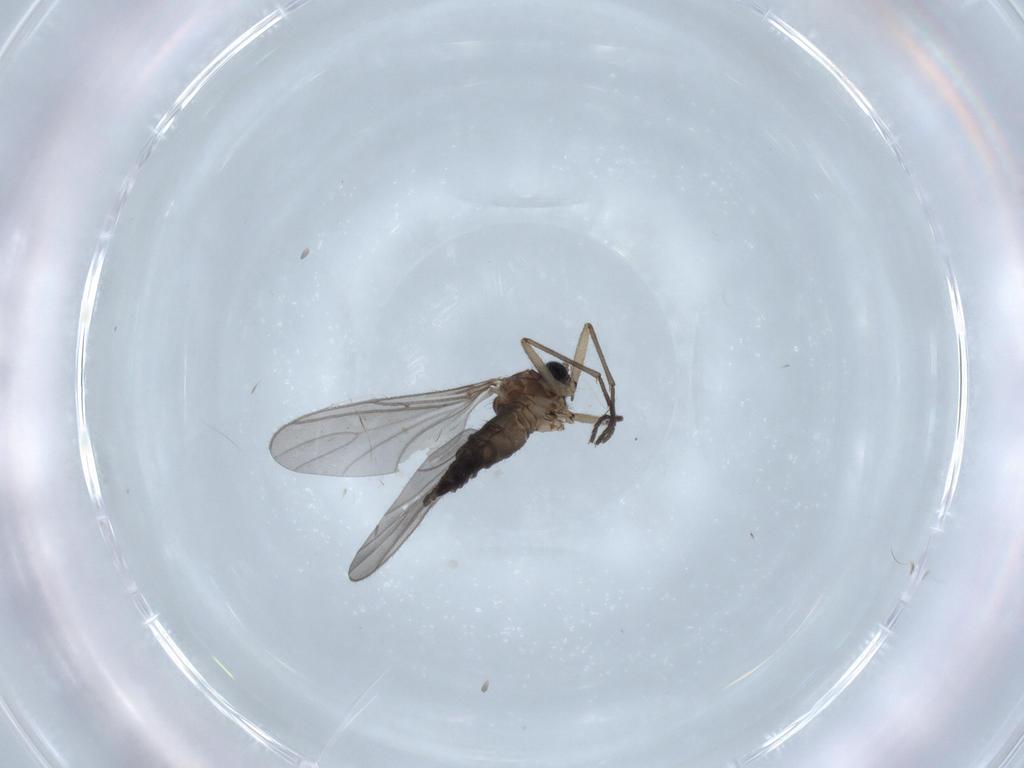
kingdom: Animalia
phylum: Arthropoda
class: Insecta
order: Diptera
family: Sciaridae
